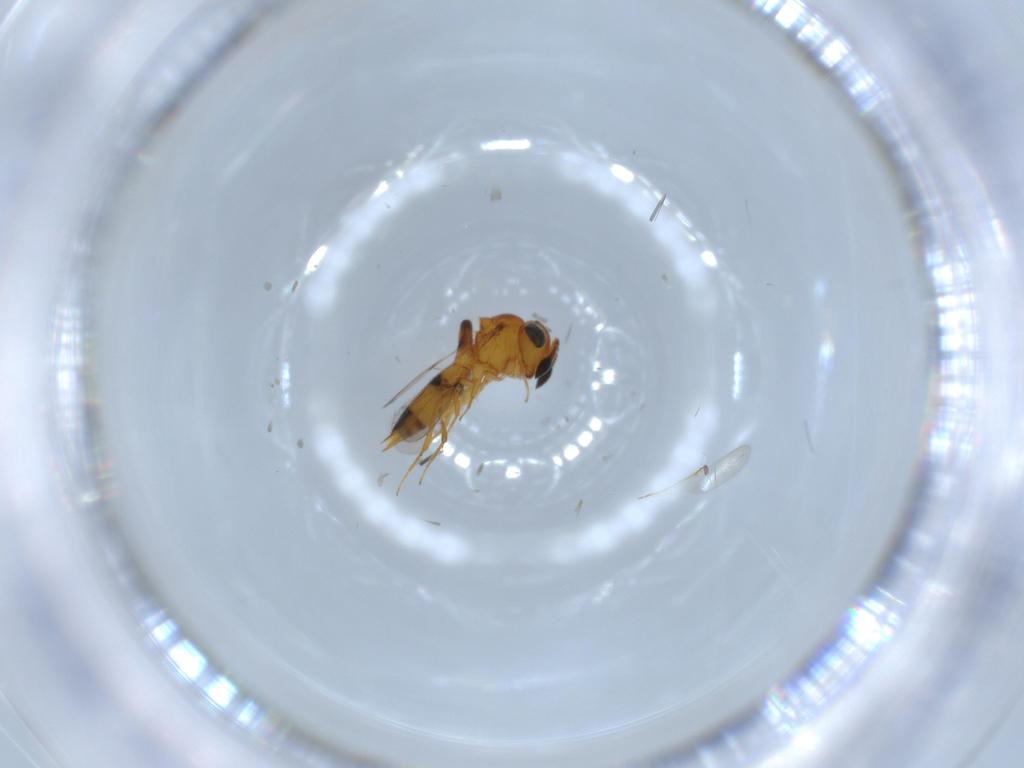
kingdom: Animalia
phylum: Arthropoda
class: Insecta
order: Hymenoptera
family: Scelionidae
